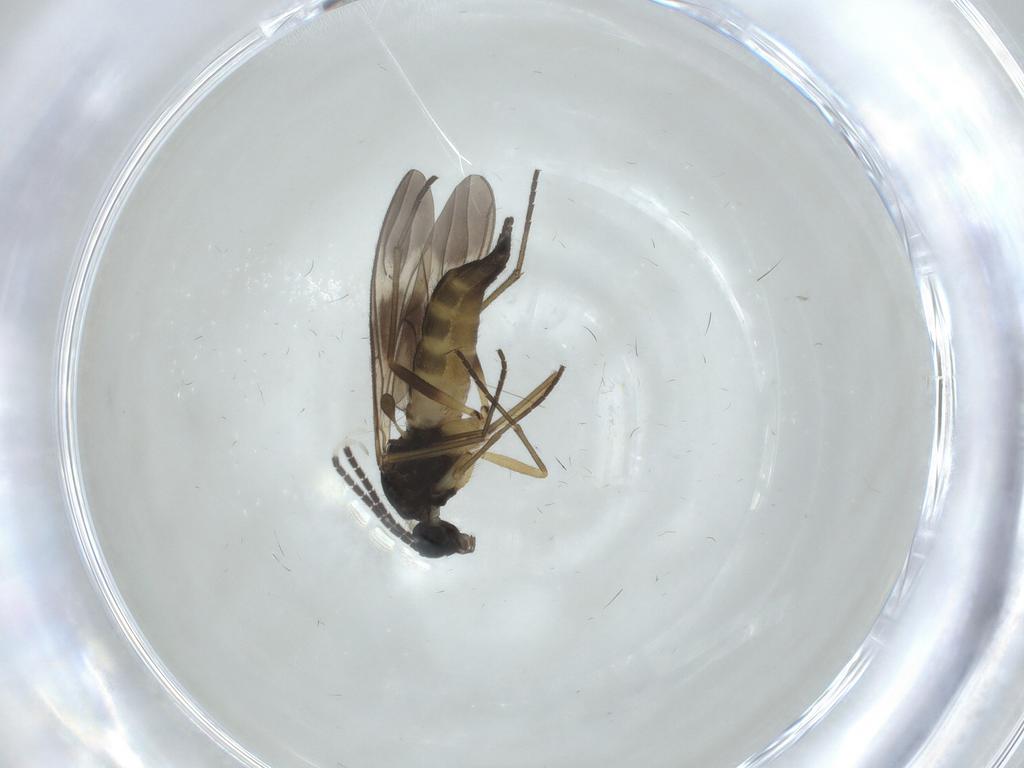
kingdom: Animalia
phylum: Arthropoda
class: Insecta
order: Diptera
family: Sciaridae
